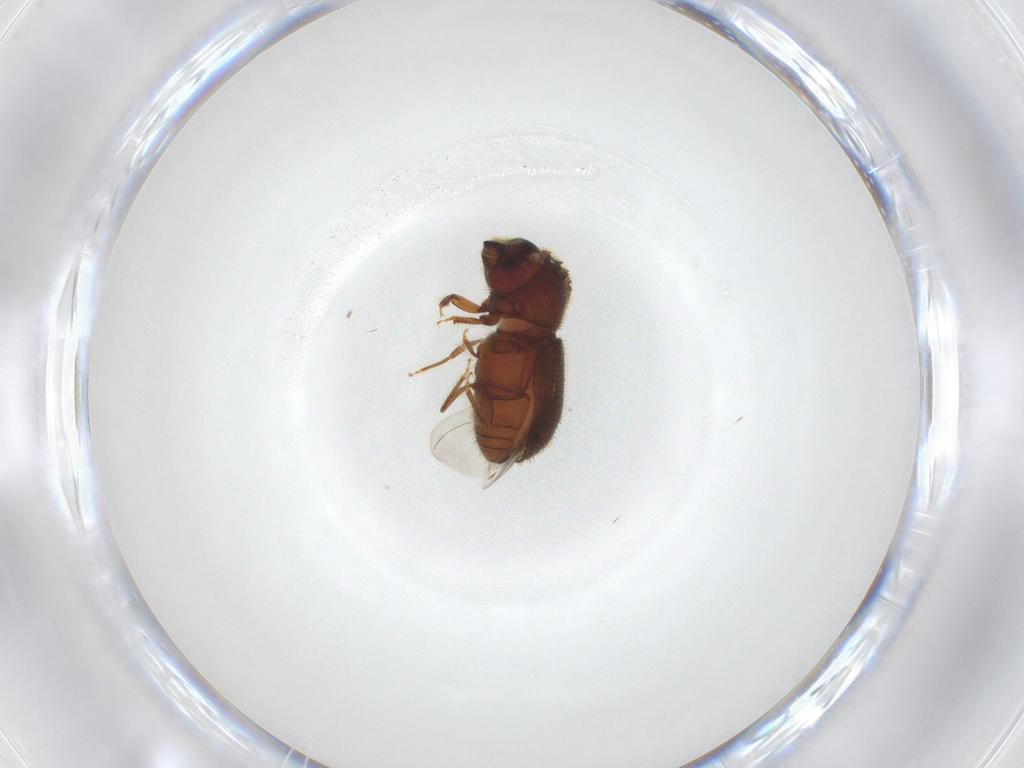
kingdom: Animalia
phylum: Arthropoda
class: Insecta
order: Coleoptera
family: Curculionidae
